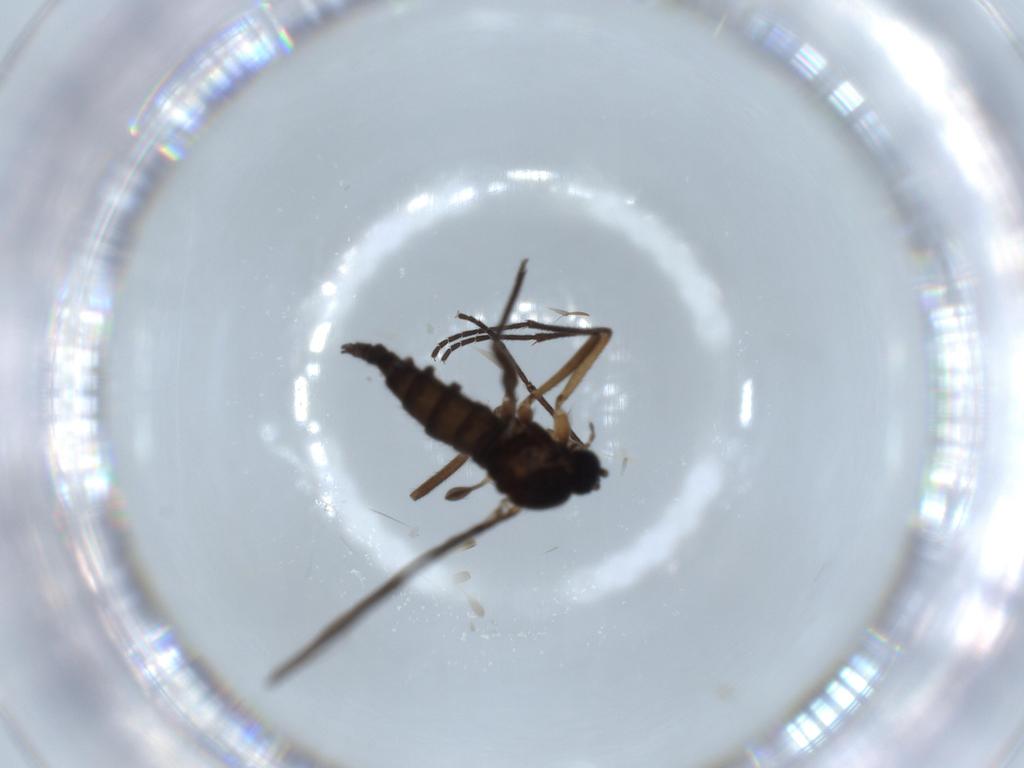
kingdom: Animalia
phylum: Arthropoda
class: Insecta
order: Diptera
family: Sciaridae
